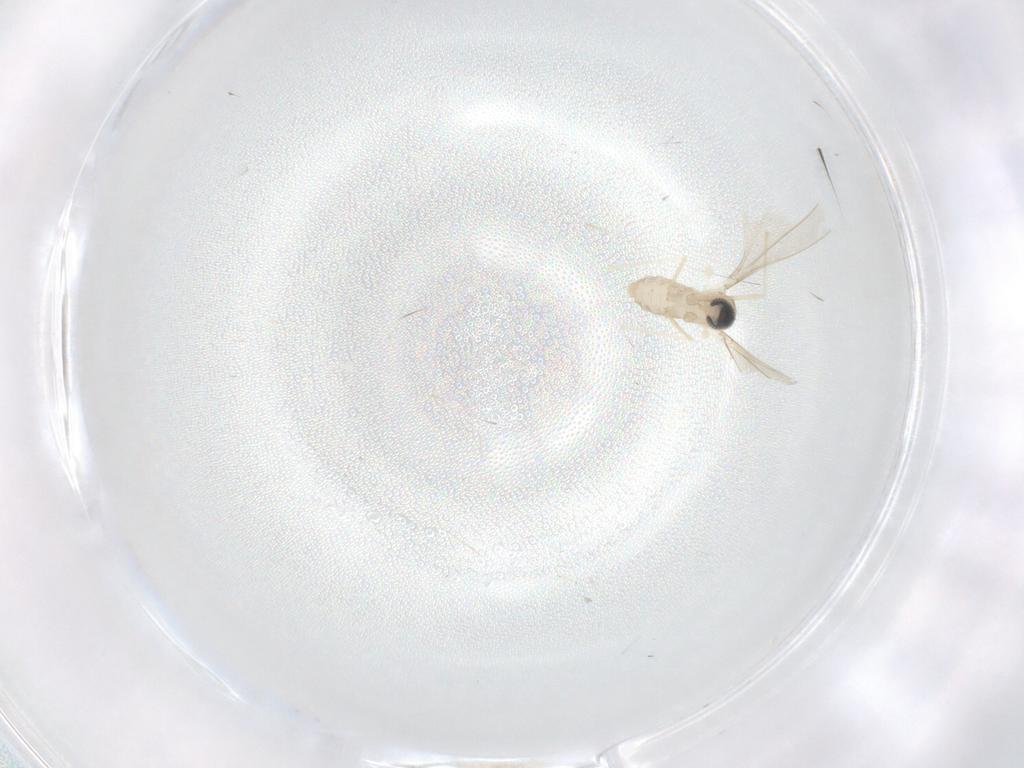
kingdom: Animalia
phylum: Arthropoda
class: Insecta
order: Diptera
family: Cecidomyiidae
